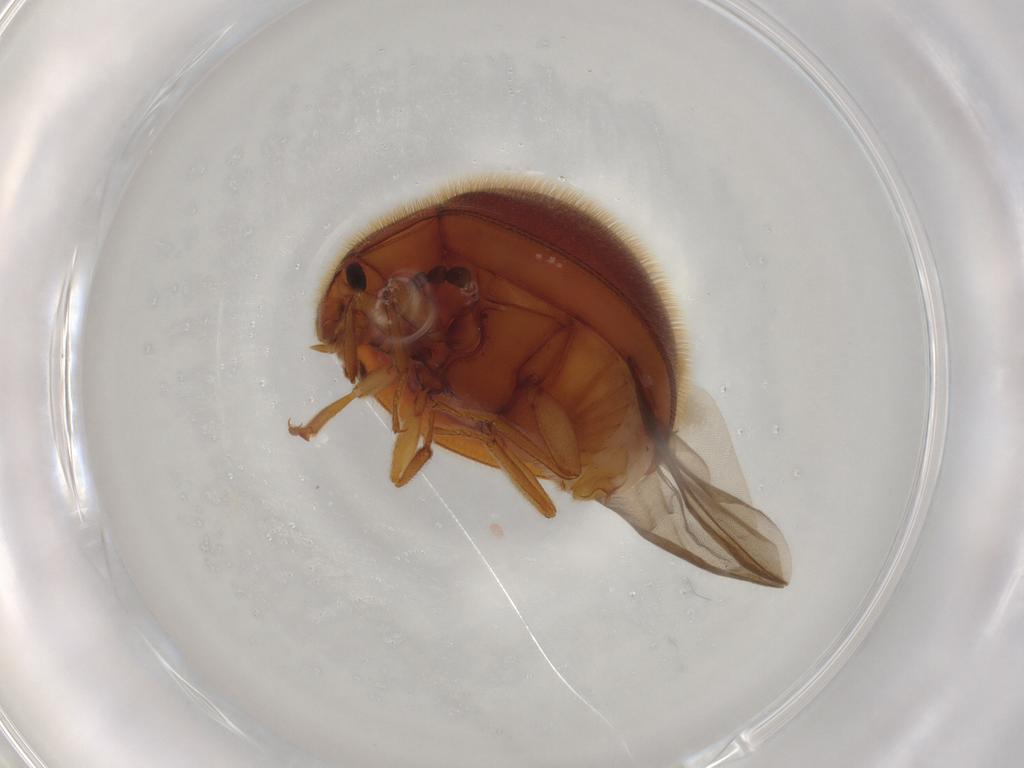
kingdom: Animalia
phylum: Arthropoda
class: Insecta
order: Coleoptera
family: Anamorphidae
